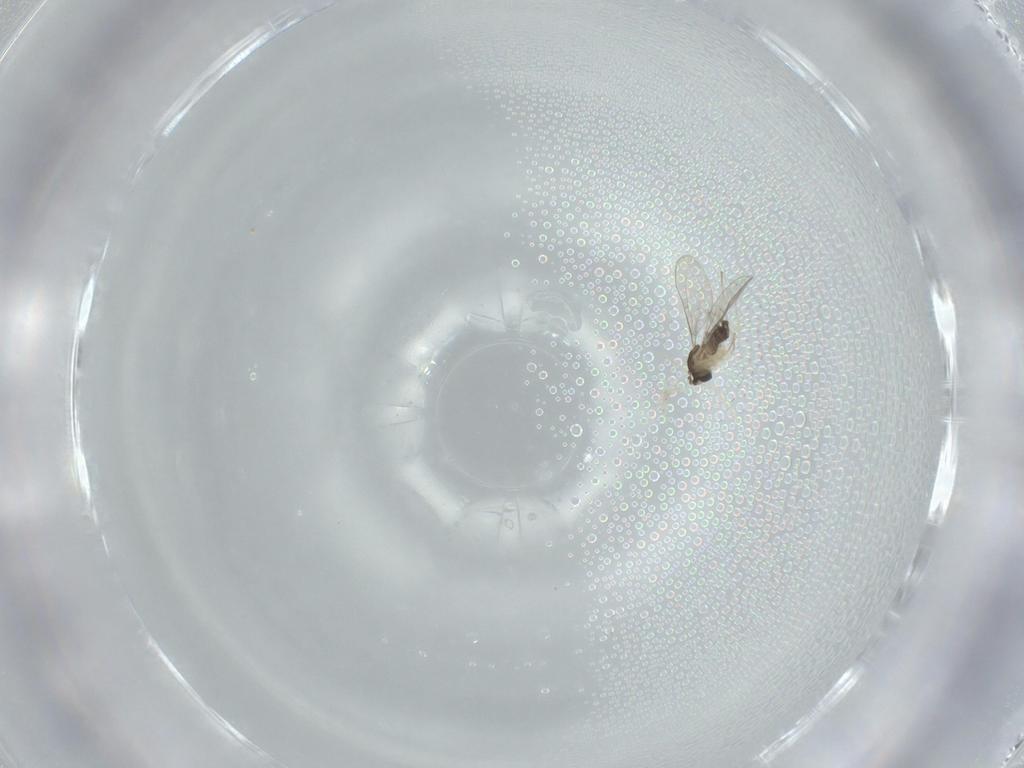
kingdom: Animalia
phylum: Arthropoda
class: Insecta
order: Diptera
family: Cecidomyiidae
